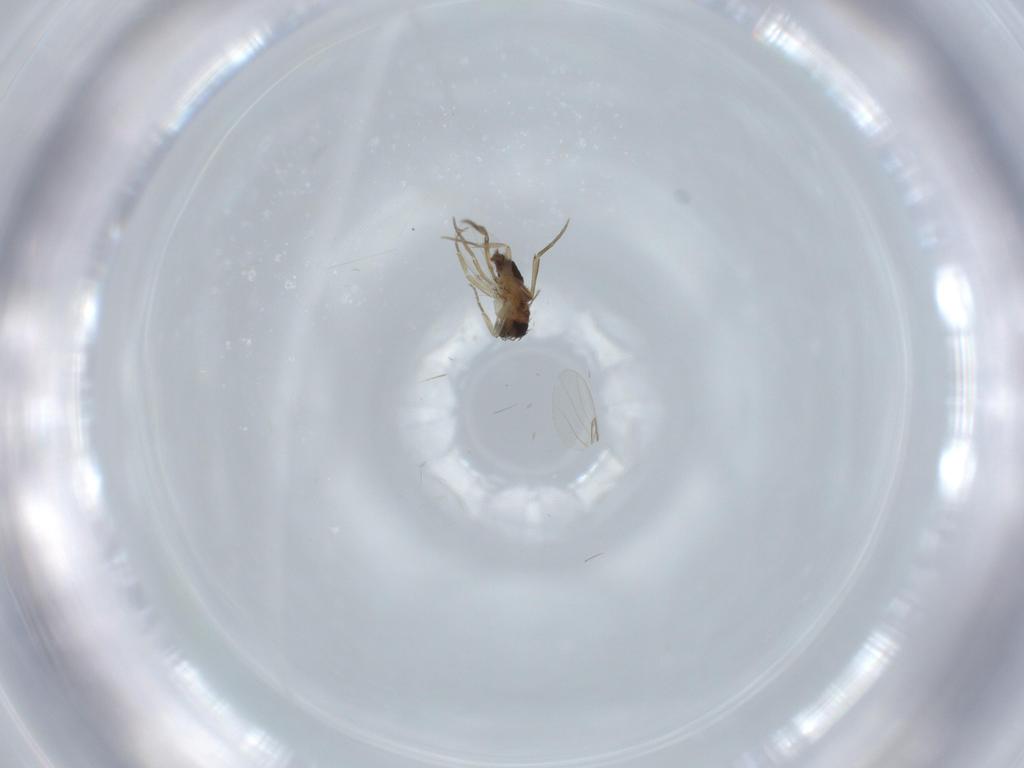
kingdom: Animalia
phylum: Arthropoda
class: Insecta
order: Diptera
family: Phoridae
